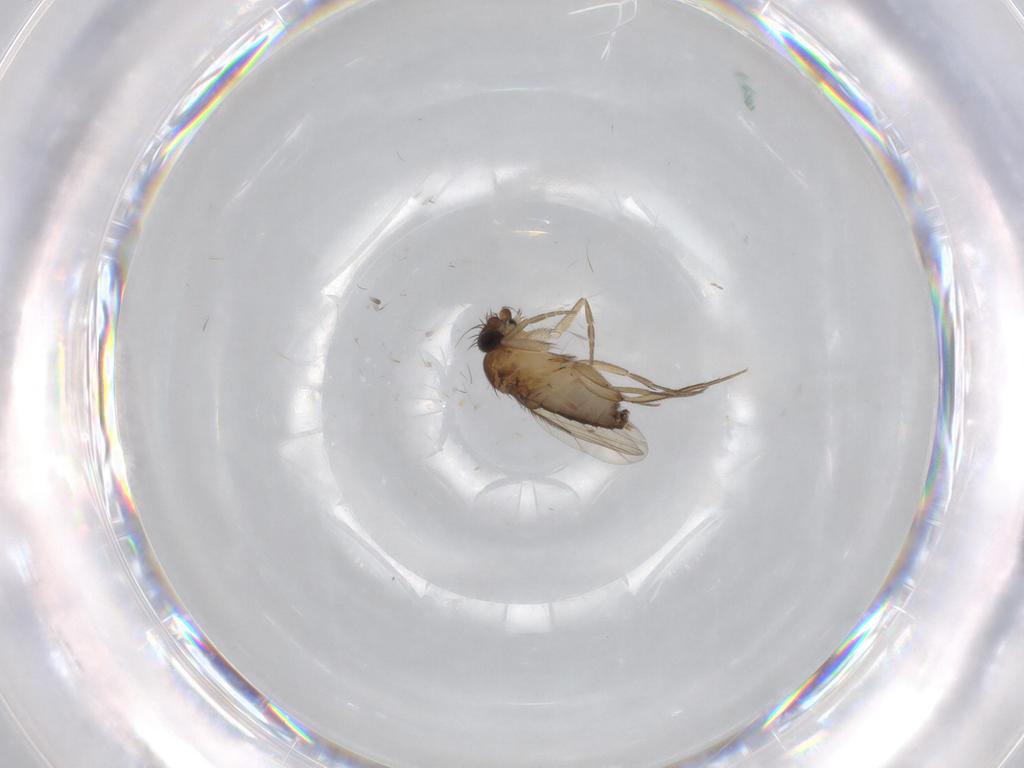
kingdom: Animalia
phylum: Arthropoda
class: Insecta
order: Diptera
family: Phoridae
